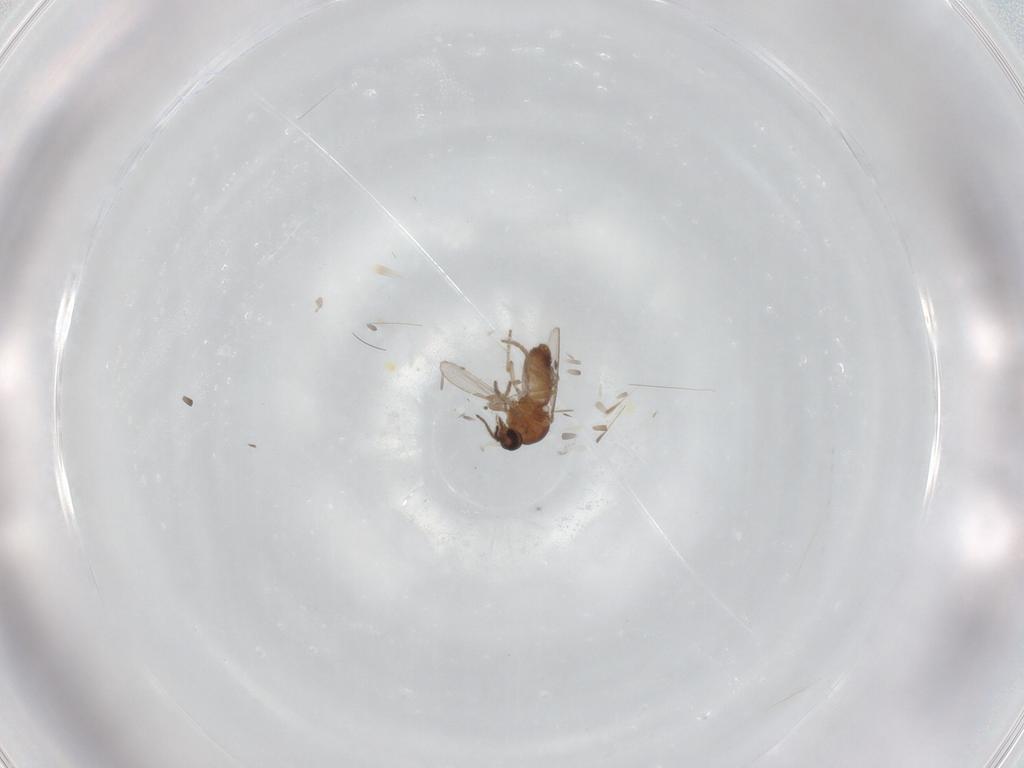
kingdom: Animalia
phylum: Arthropoda
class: Insecta
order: Diptera
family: Ceratopogonidae
